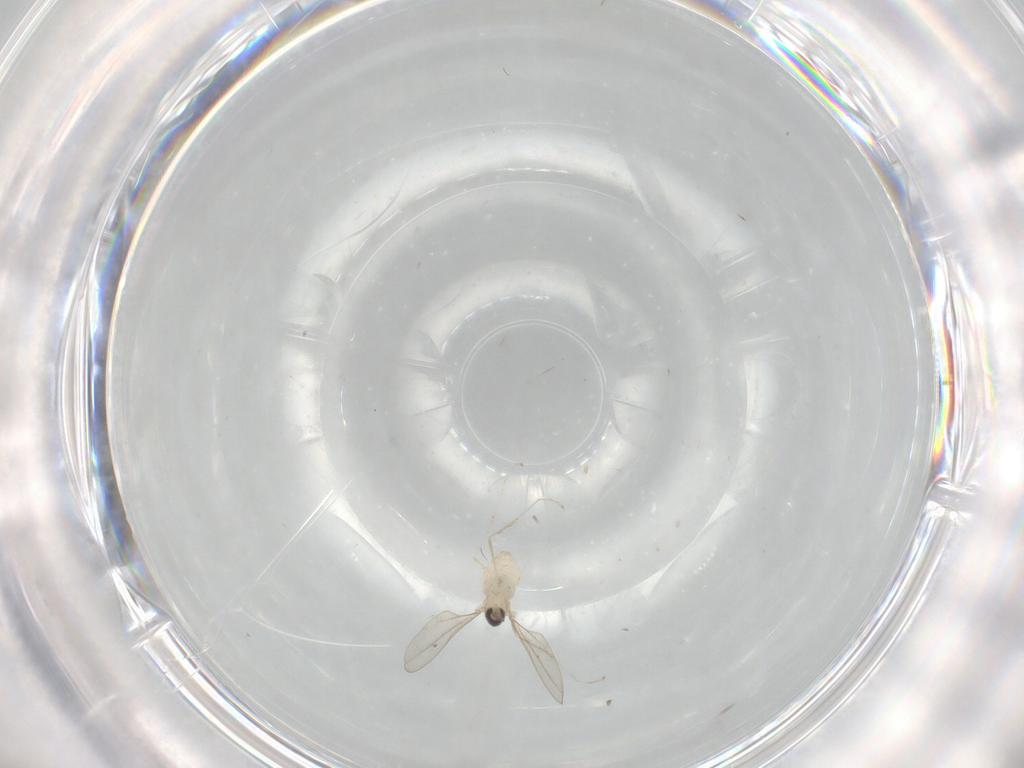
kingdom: Animalia
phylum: Arthropoda
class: Insecta
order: Diptera
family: Cecidomyiidae
